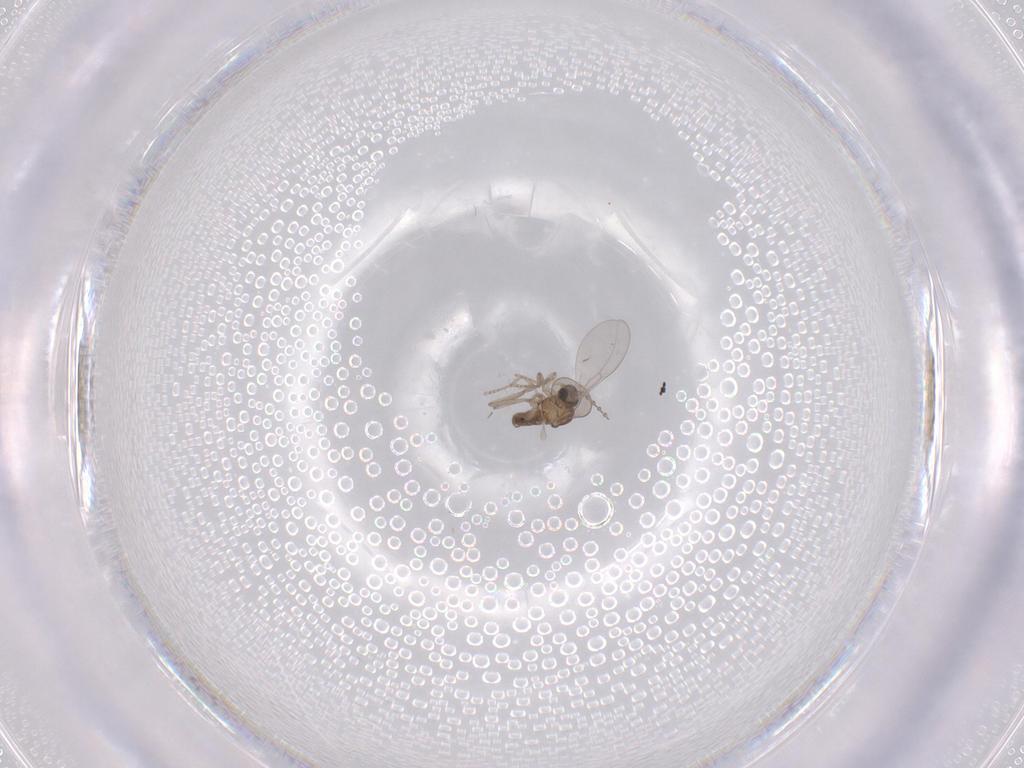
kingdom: Animalia
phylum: Arthropoda
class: Insecta
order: Diptera
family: Cecidomyiidae
